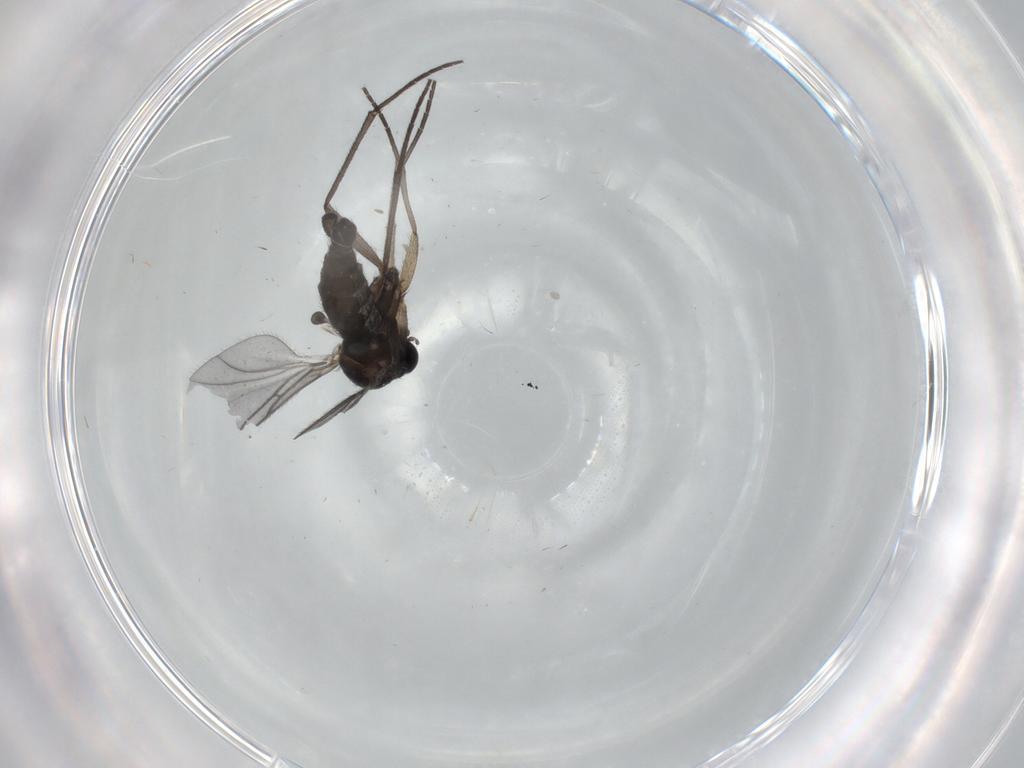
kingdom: Animalia
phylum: Arthropoda
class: Insecta
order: Diptera
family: Sciaridae
